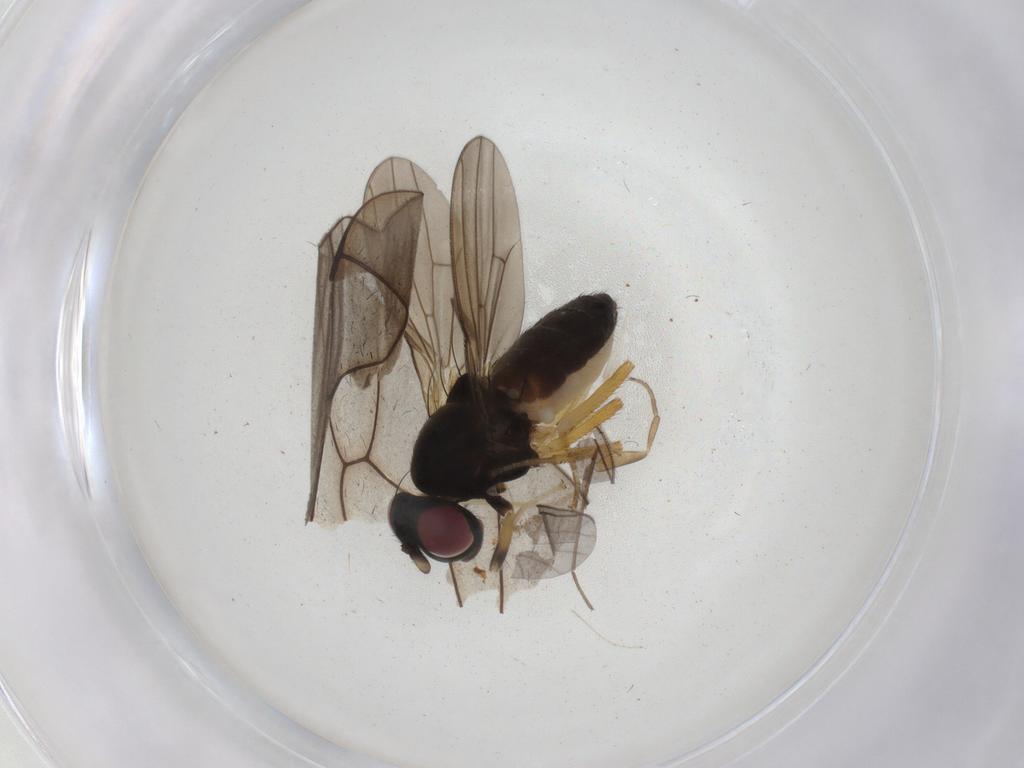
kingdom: Animalia
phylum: Arthropoda
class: Insecta
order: Diptera
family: Milichiidae
